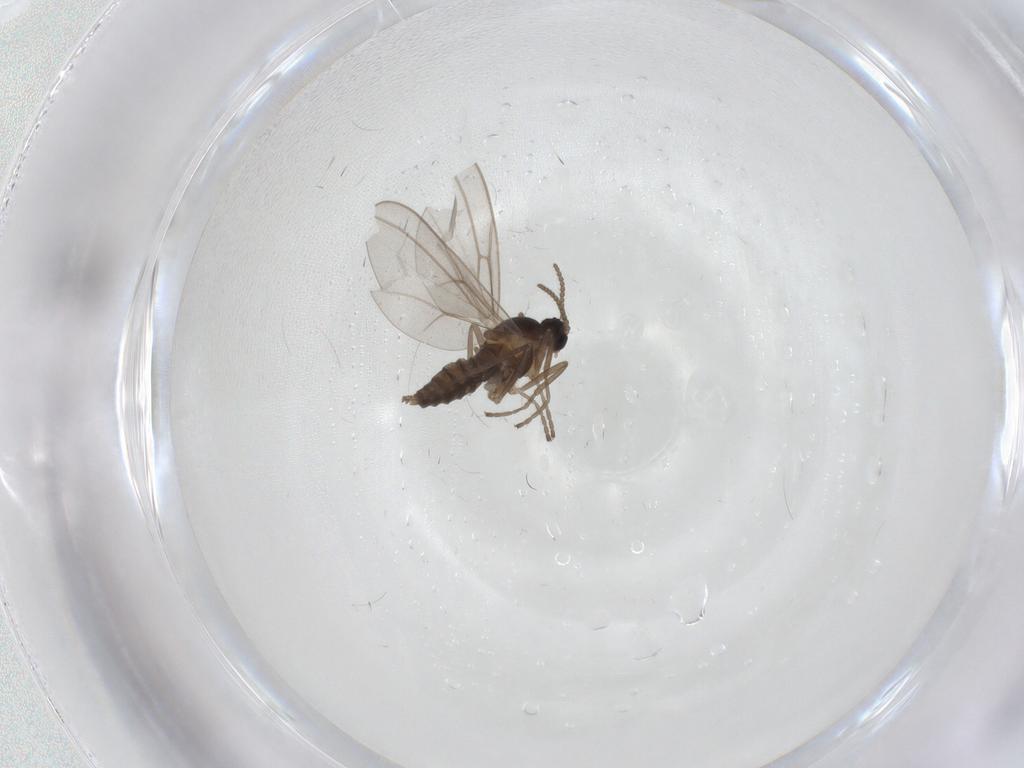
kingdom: Animalia
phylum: Arthropoda
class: Insecta
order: Diptera
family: Cecidomyiidae
